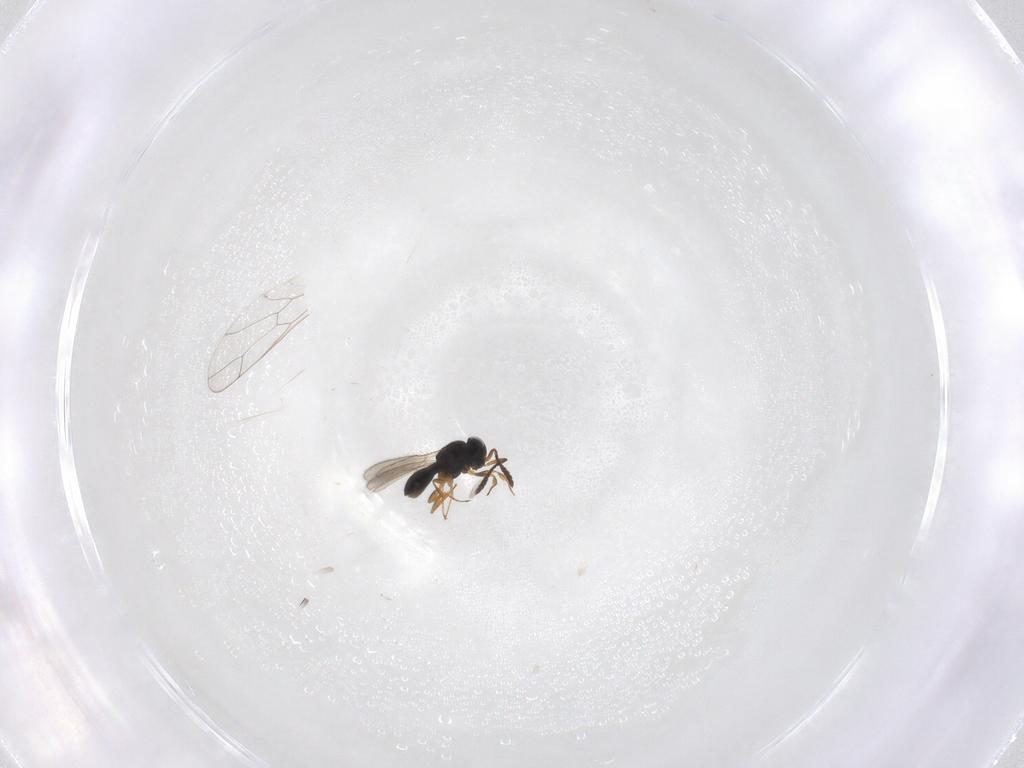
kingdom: Animalia
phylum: Arthropoda
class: Insecta
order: Hymenoptera
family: Scelionidae
